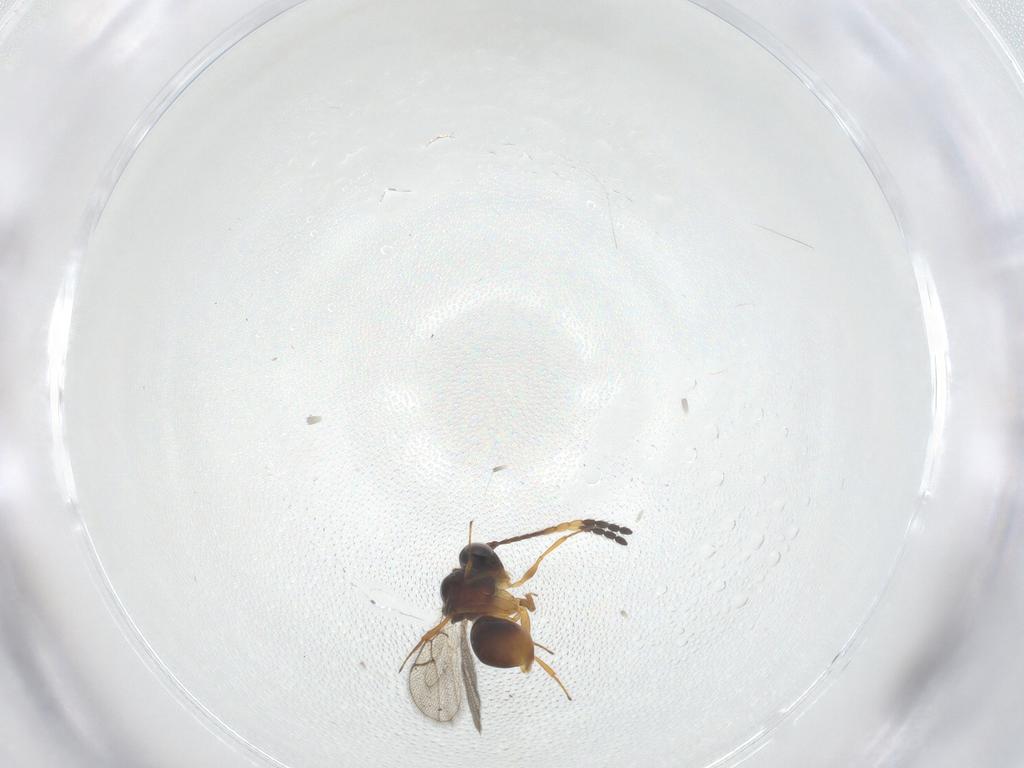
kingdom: Animalia
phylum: Arthropoda
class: Insecta
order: Hymenoptera
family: Figitidae
